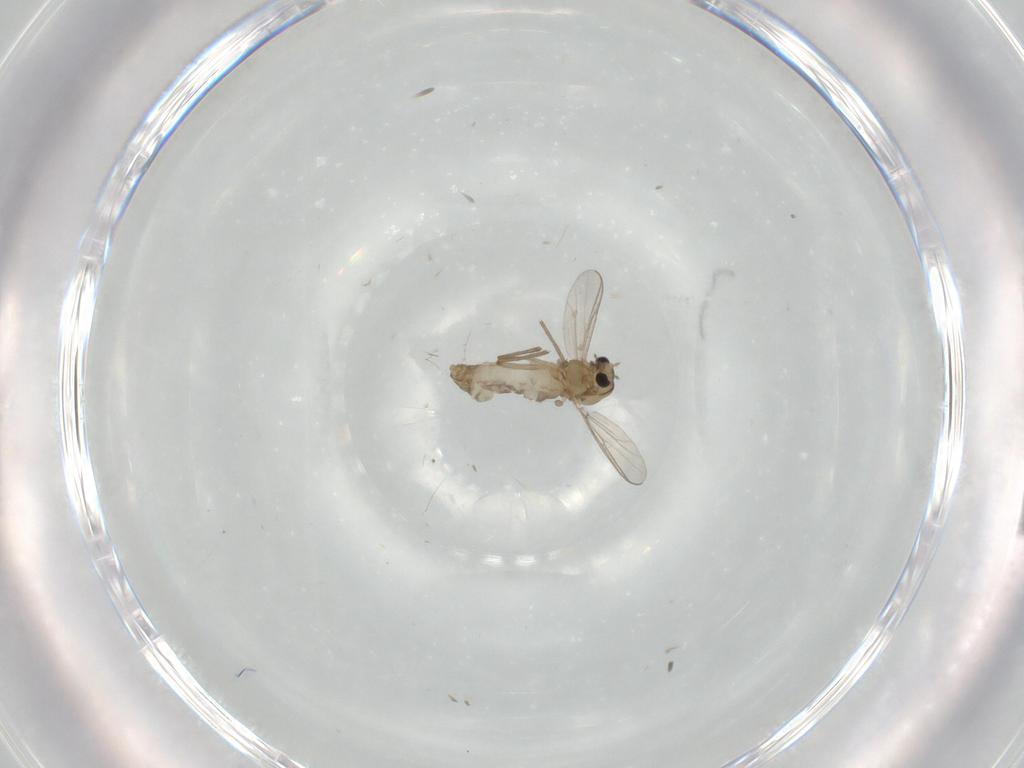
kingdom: Animalia
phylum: Arthropoda
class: Insecta
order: Diptera
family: Chironomidae
